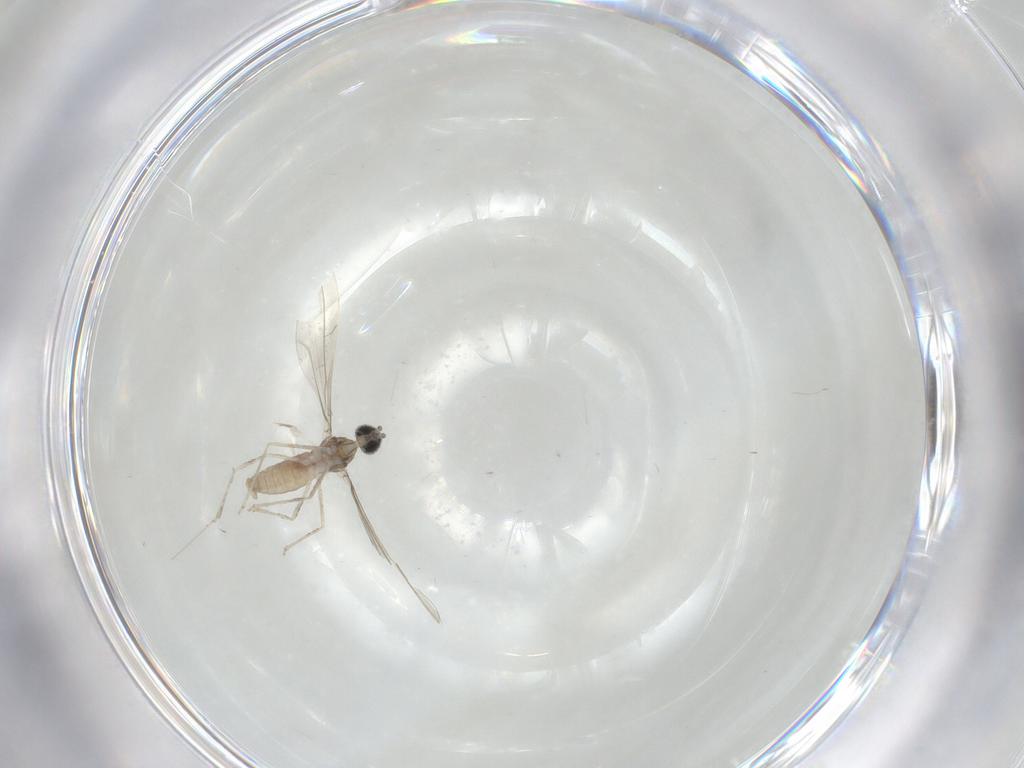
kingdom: Animalia
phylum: Arthropoda
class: Insecta
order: Diptera
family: Cecidomyiidae
